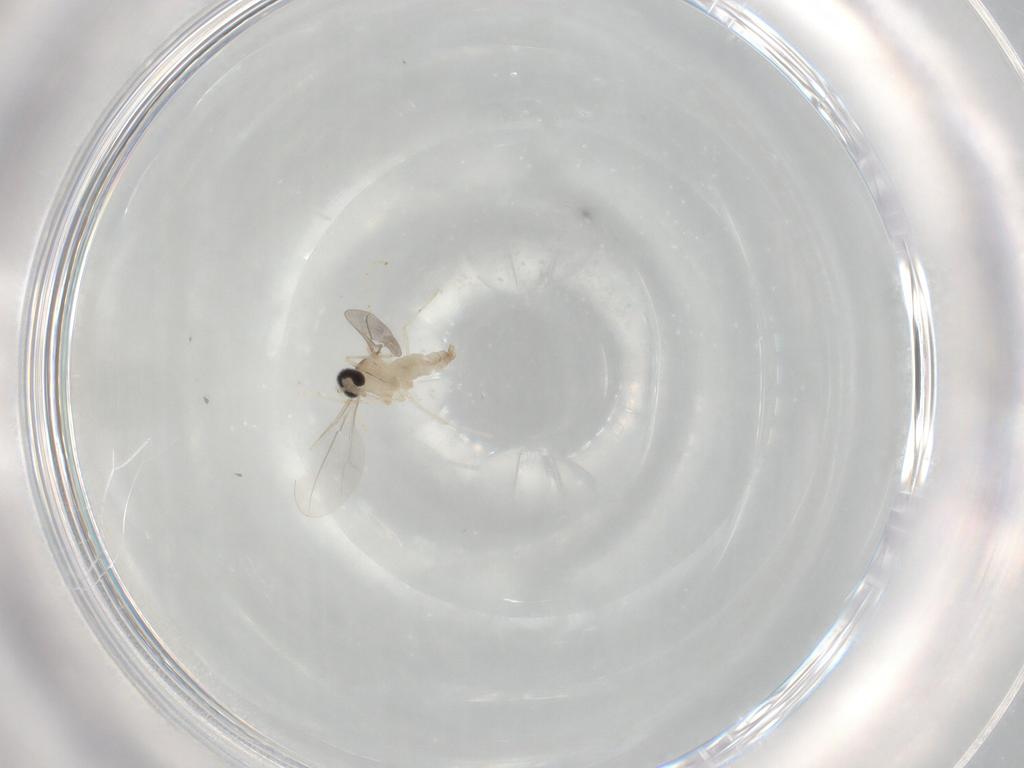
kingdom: Animalia
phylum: Arthropoda
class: Insecta
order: Diptera
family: Cecidomyiidae
